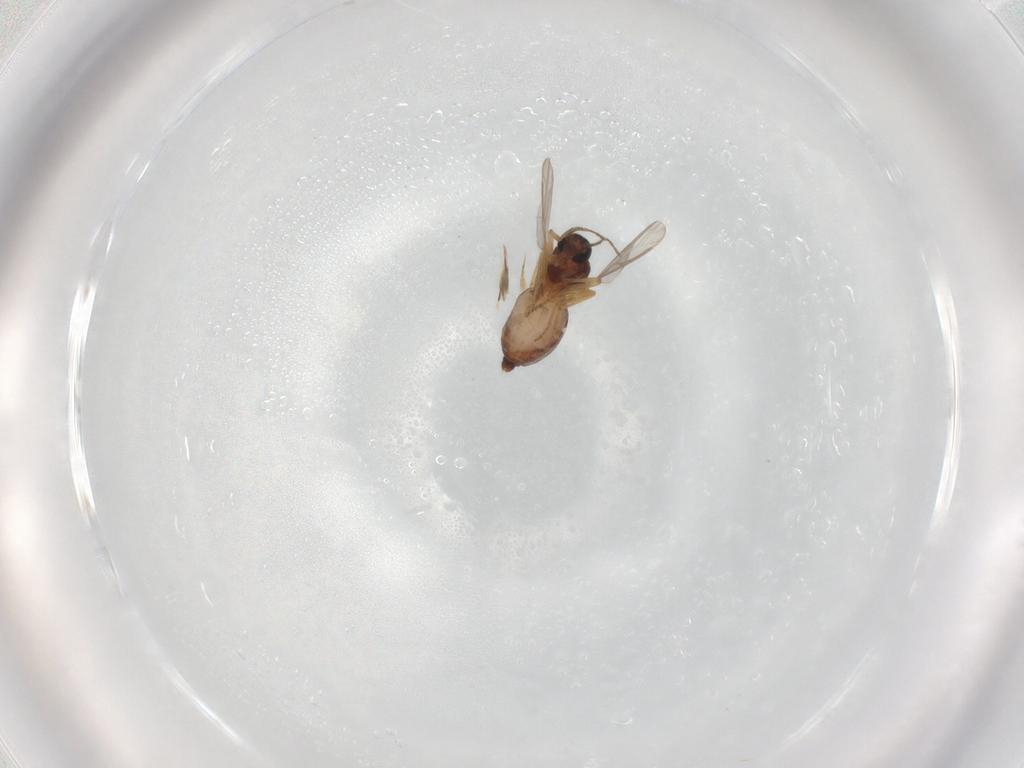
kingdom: Animalia
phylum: Arthropoda
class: Insecta
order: Diptera
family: Ceratopogonidae
